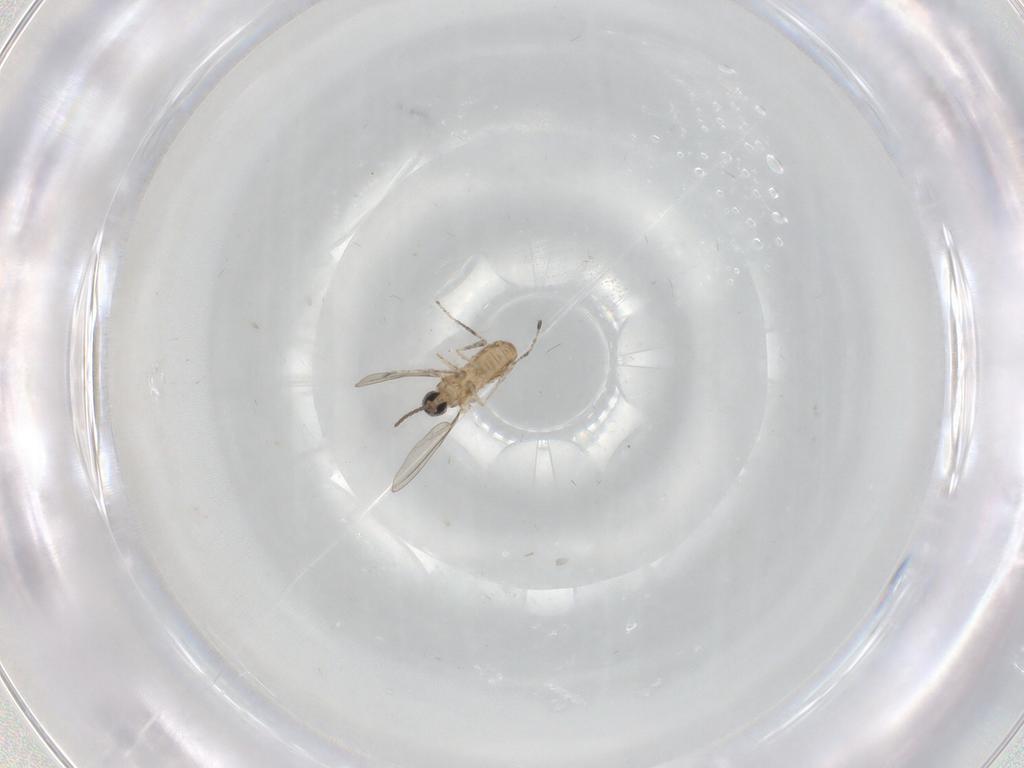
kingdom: Animalia
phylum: Arthropoda
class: Insecta
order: Diptera
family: Cecidomyiidae
